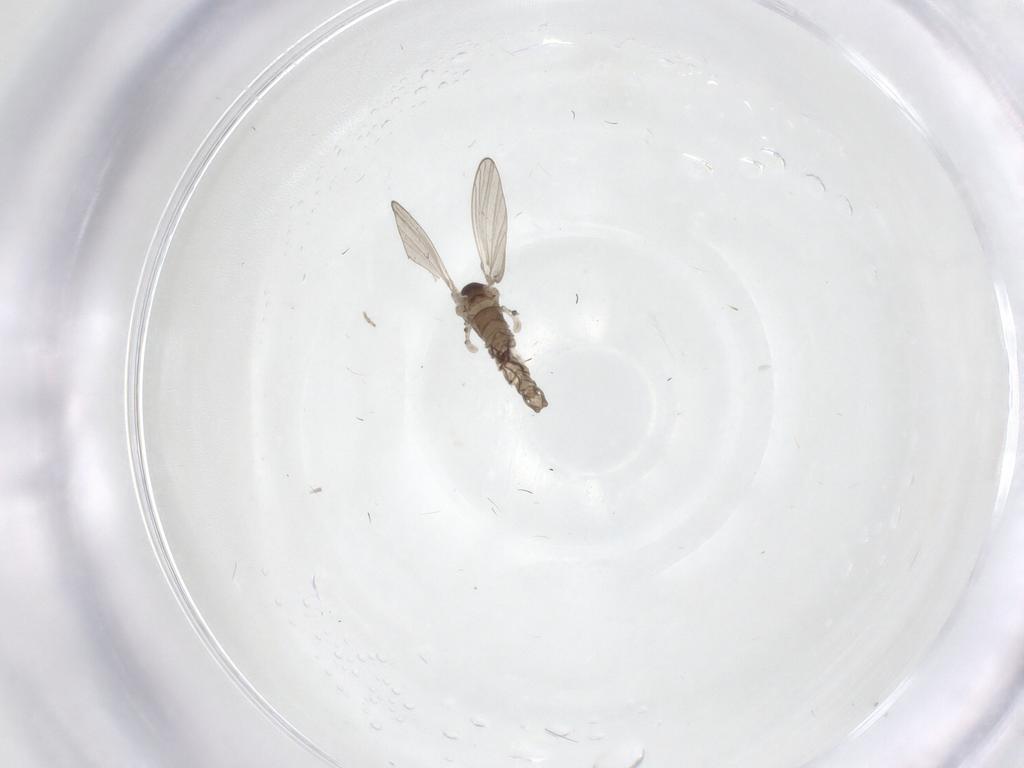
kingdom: Animalia
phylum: Arthropoda
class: Insecta
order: Diptera
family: Psychodidae
